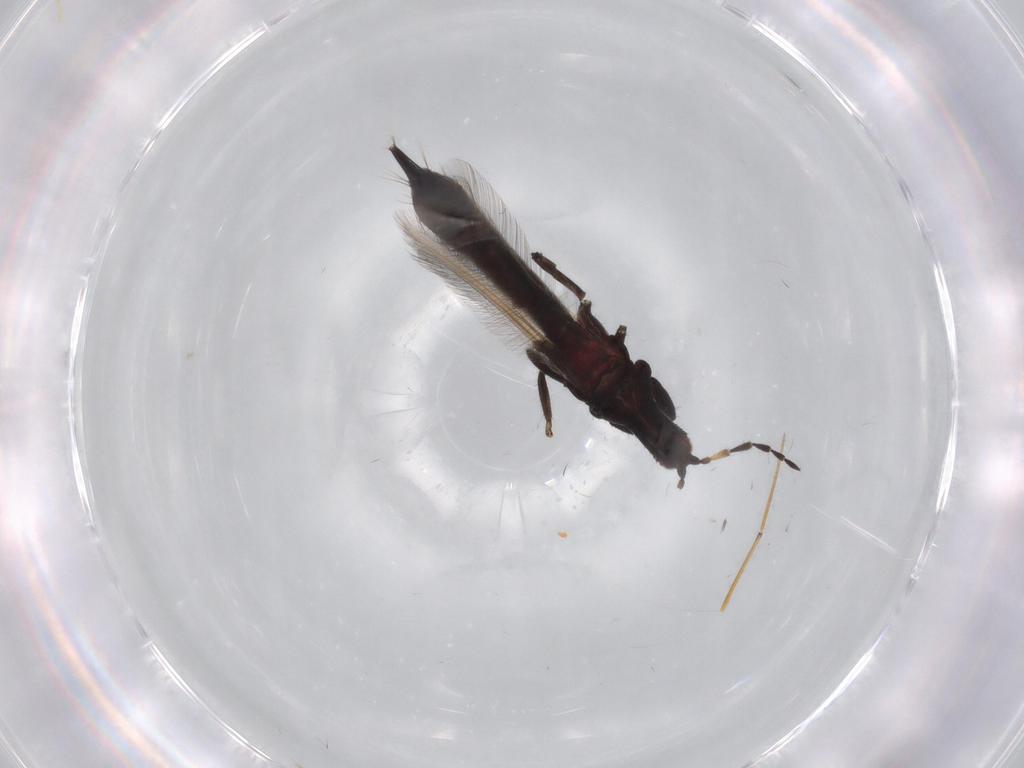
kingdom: Animalia
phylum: Arthropoda
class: Insecta
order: Thysanoptera
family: Phlaeothripidae
